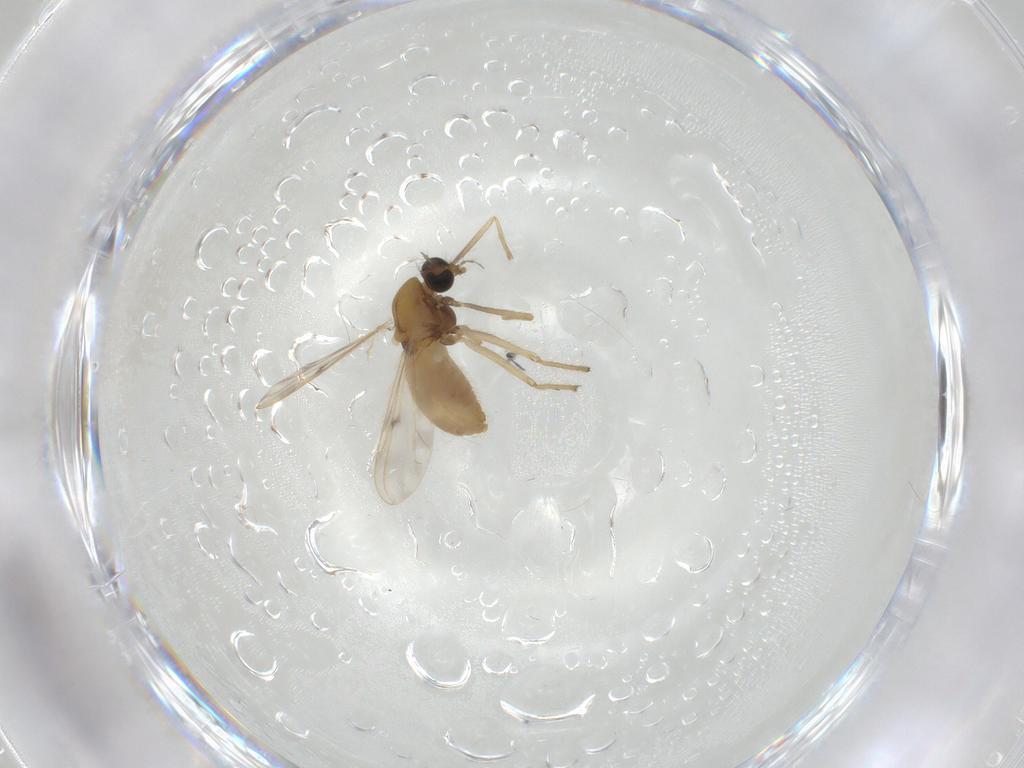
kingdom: Animalia
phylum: Arthropoda
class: Insecta
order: Diptera
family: Chironomidae
